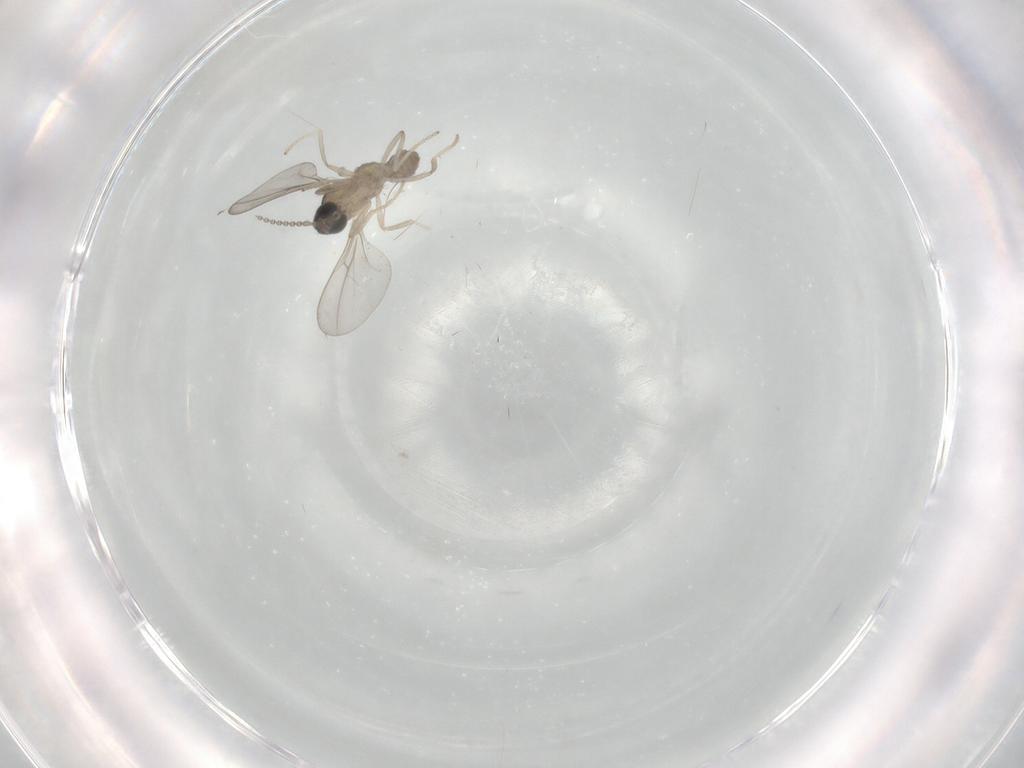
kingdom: Animalia
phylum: Arthropoda
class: Insecta
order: Diptera
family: Cecidomyiidae
